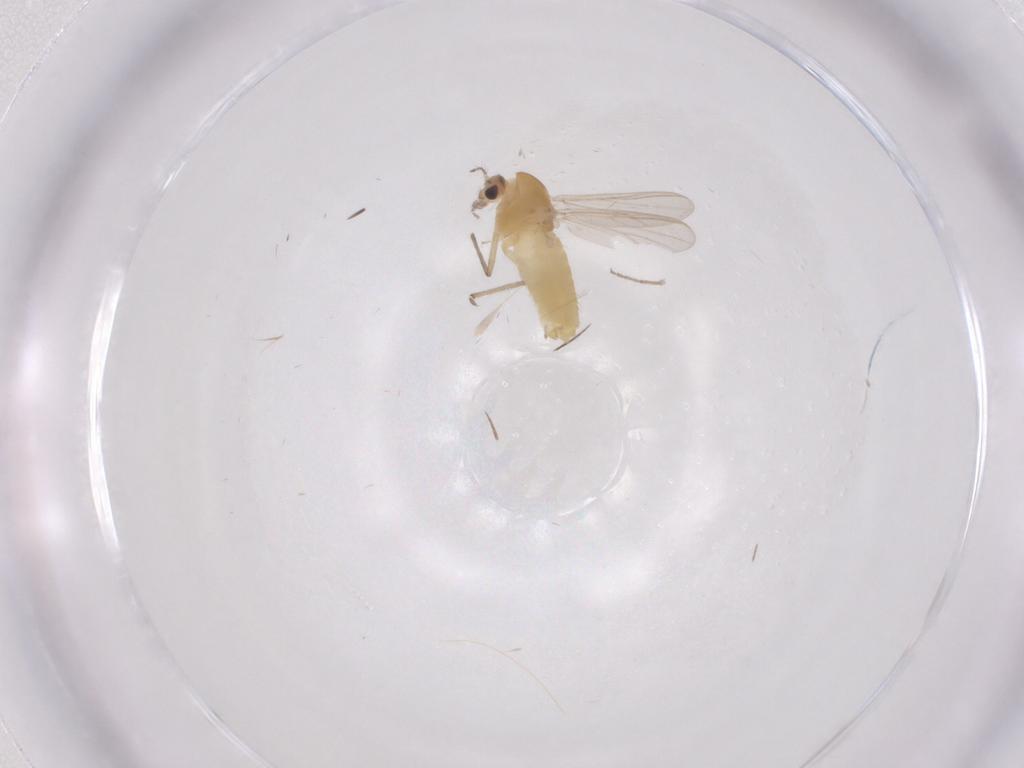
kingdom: Animalia
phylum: Arthropoda
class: Insecta
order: Diptera
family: Chironomidae
